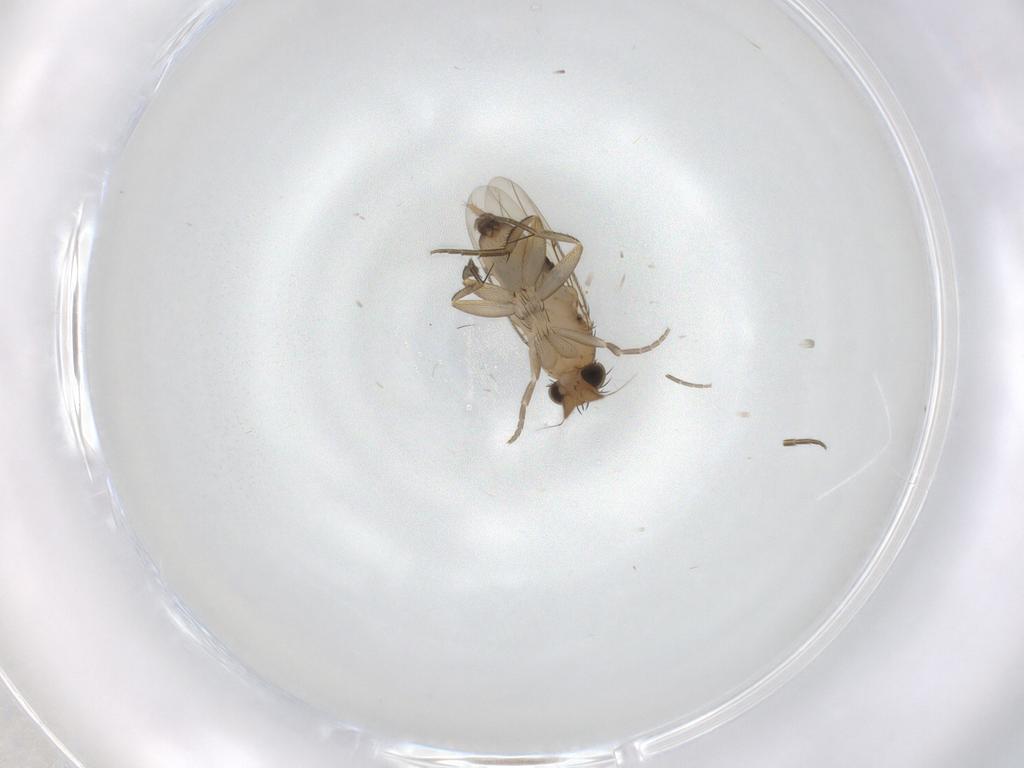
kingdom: Animalia
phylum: Arthropoda
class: Insecta
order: Diptera
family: Phoridae
